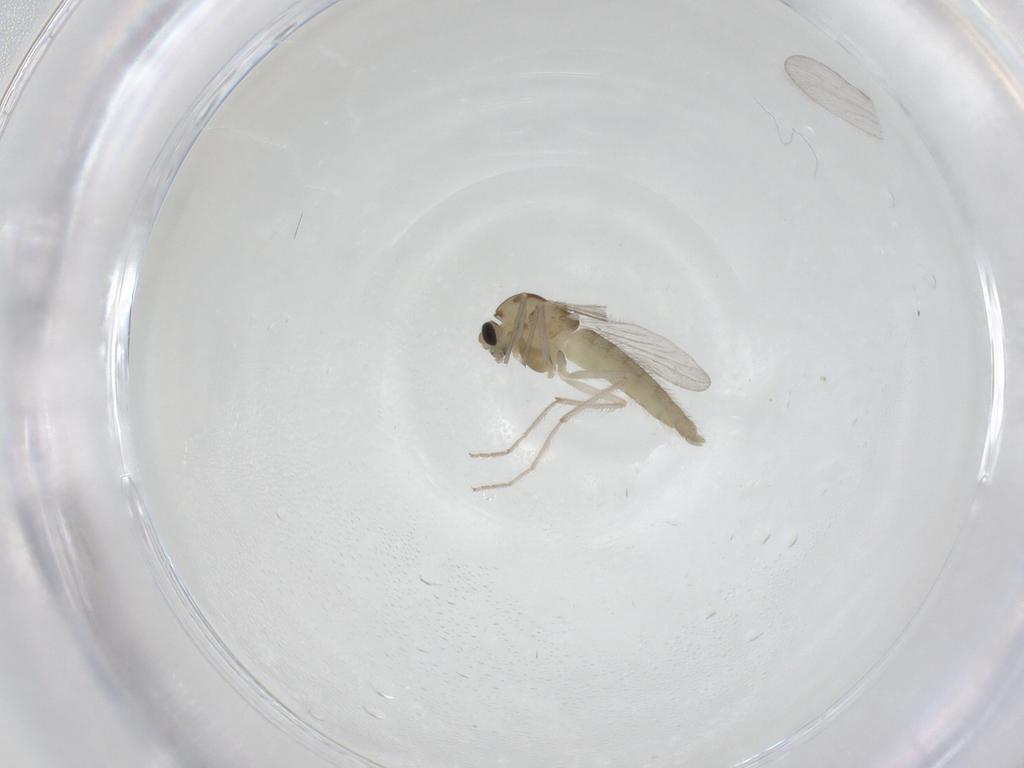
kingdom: Animalia
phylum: Arthropoda
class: Insecta
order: Diptera
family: Chironomidae
